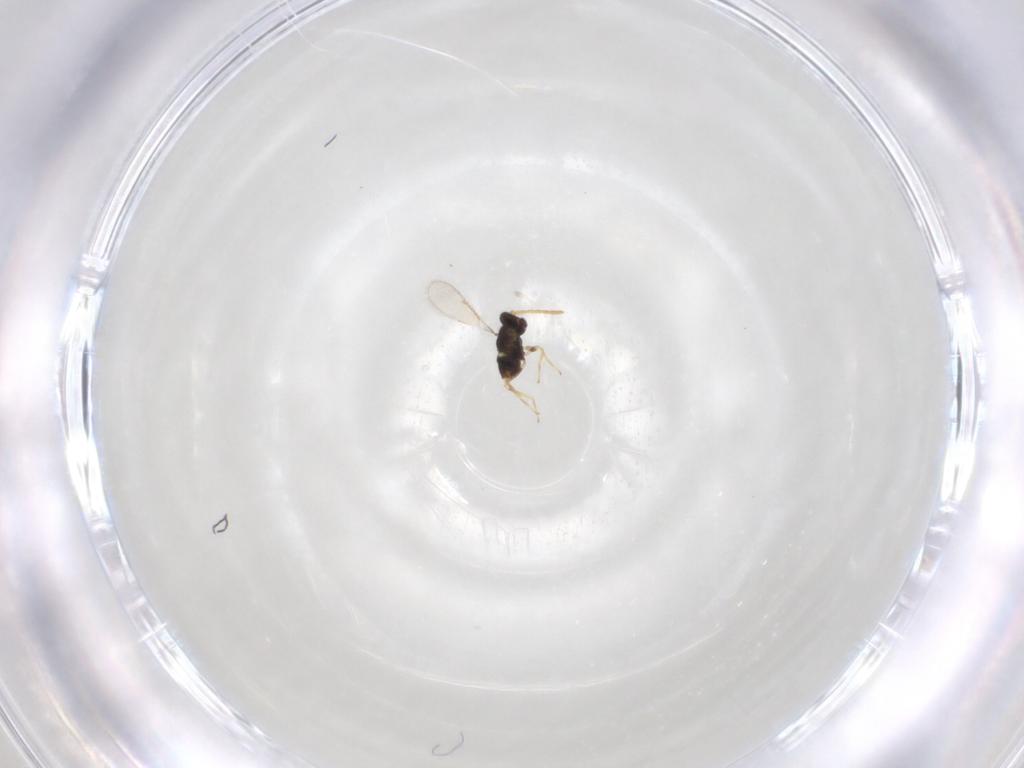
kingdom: Animalia
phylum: Arthropoda
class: Insecta
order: Hymenoptera
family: Aphelinidae
